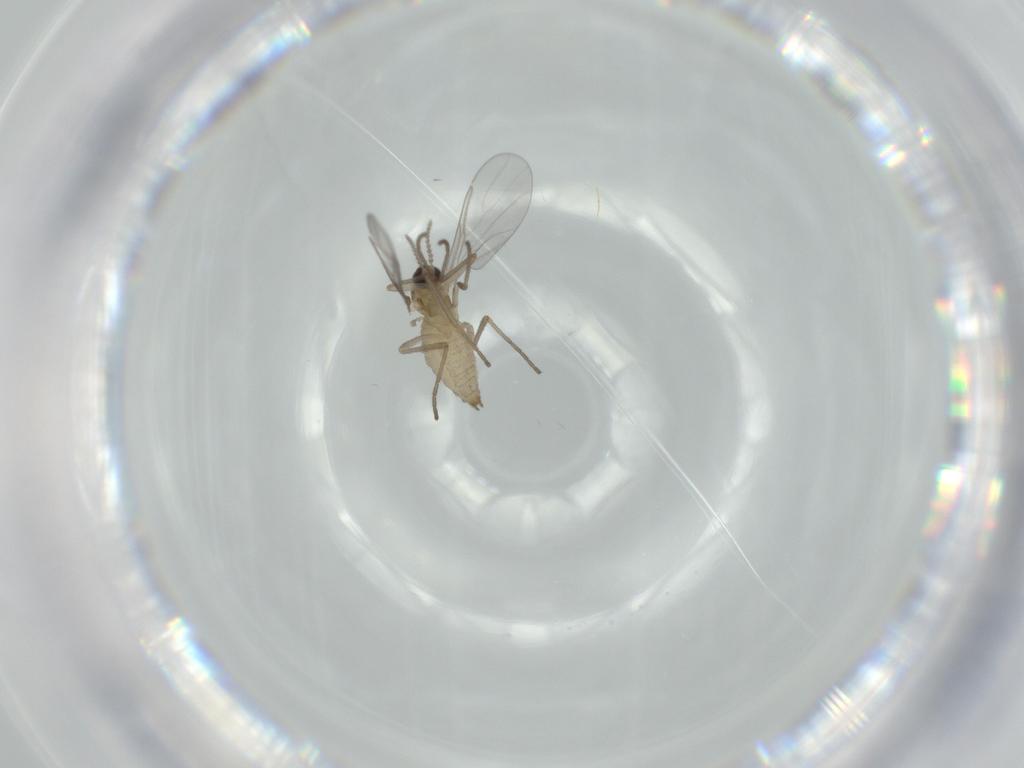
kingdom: Animalia
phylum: Arthropoda
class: Insecta
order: Diptera
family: Cecidomyiidae
